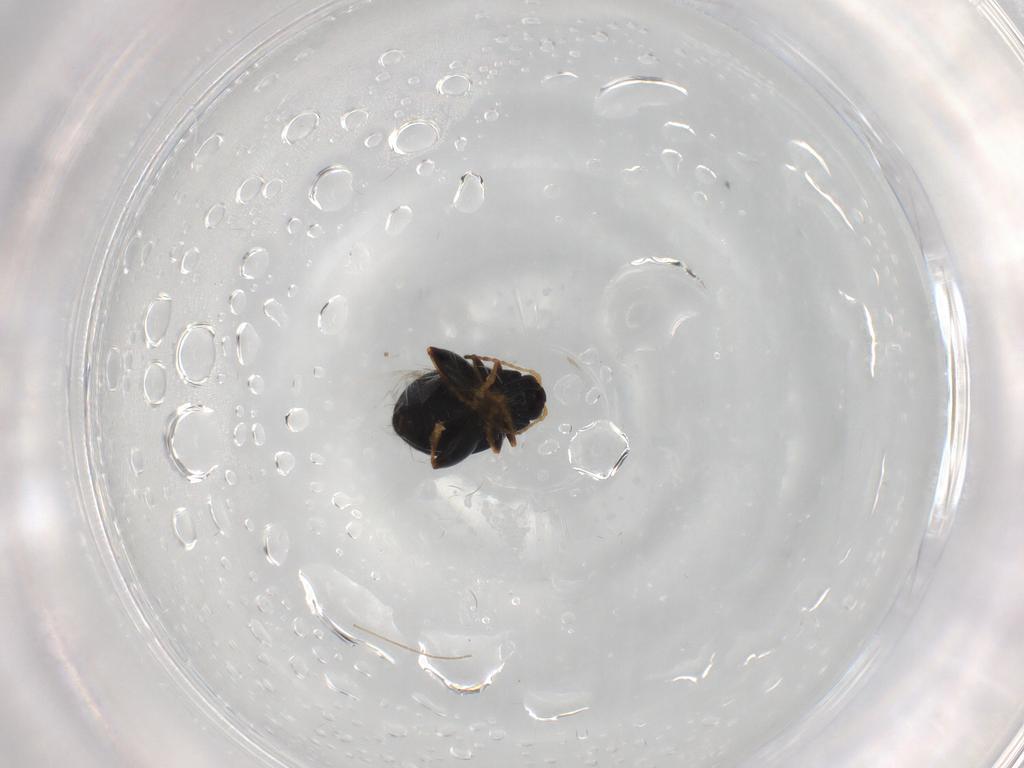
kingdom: Animalia
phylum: Arthropoda
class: Insecta
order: Coleoptera
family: Chrysomelidae
